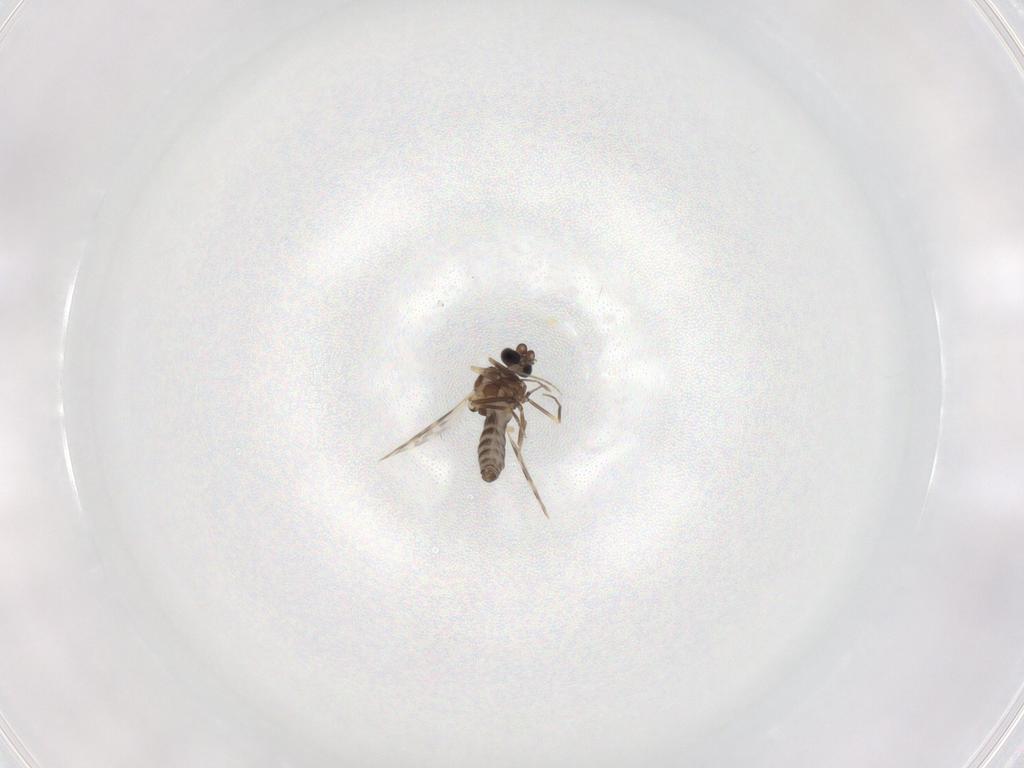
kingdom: Animalia
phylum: Arthropoda
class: Insecta
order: Diptera
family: Ceratopogonidae
